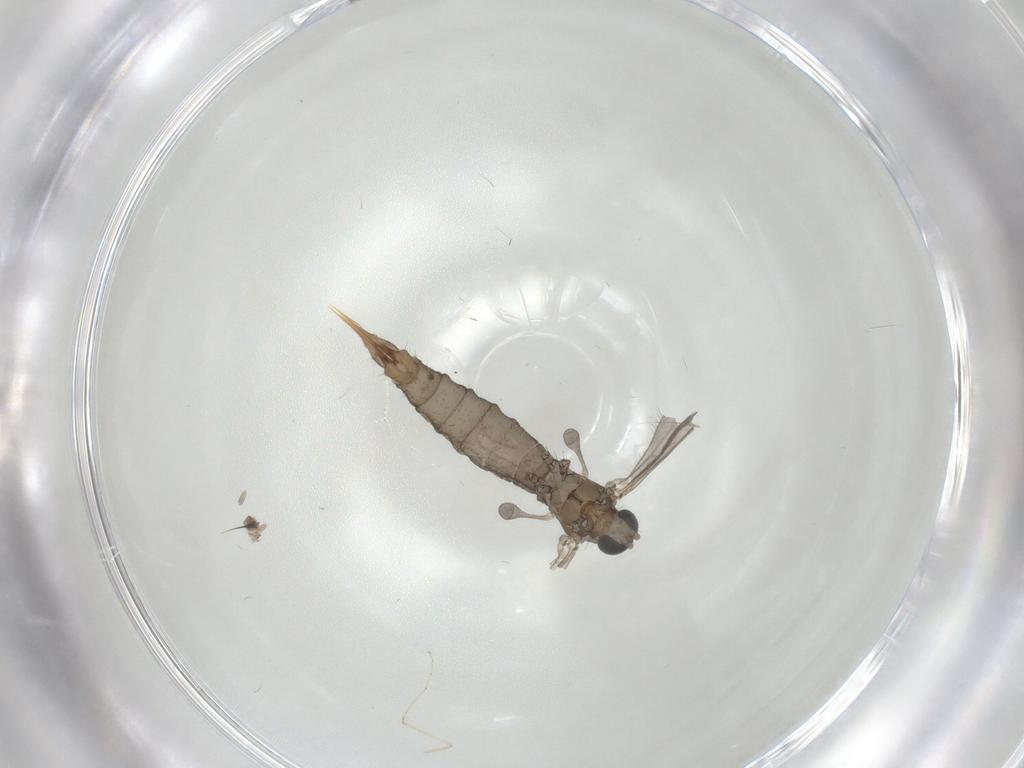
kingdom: Animalia
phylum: Arthropoda
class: Insecta
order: Diptera
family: Limoniidae
